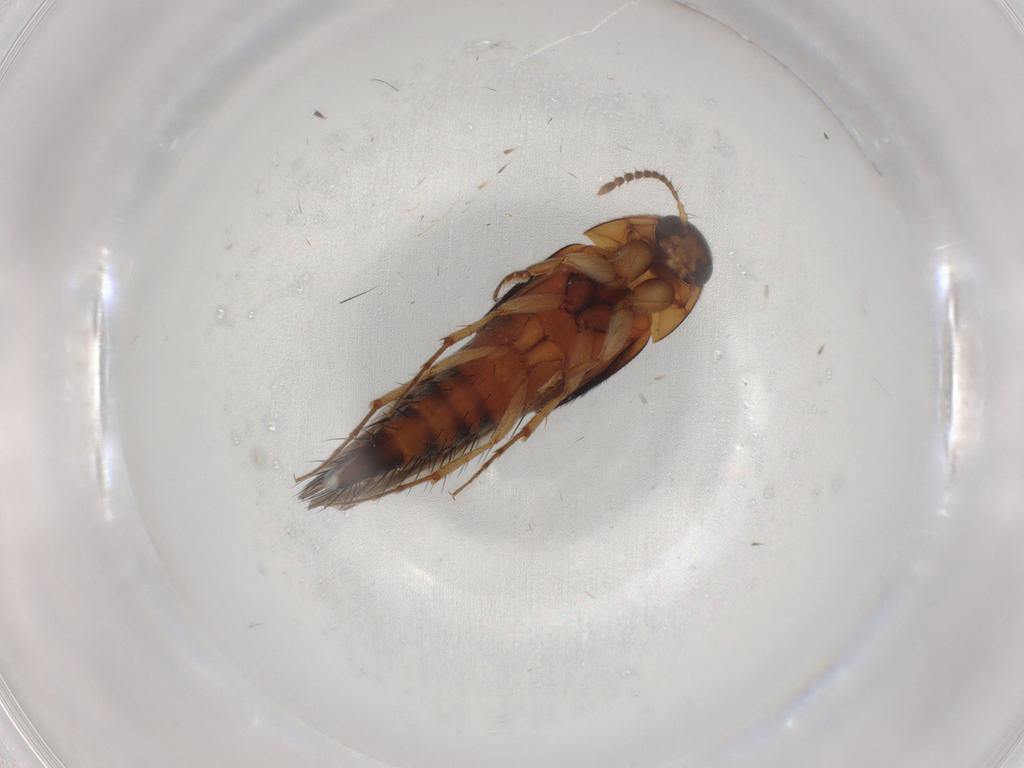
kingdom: Animalia
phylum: Arthropoda
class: Insecta
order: Coleoptera
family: Staphylinidae
